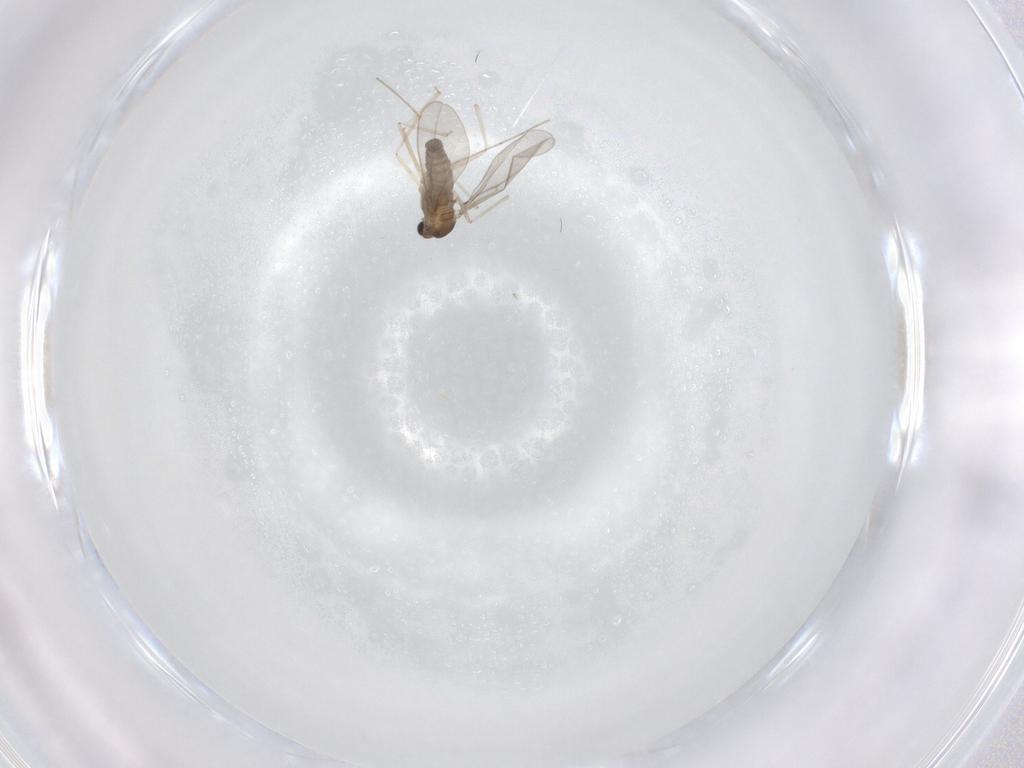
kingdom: Animalia
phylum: Arthropoda
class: Insecta
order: Diptera
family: Cecidomyiidae
